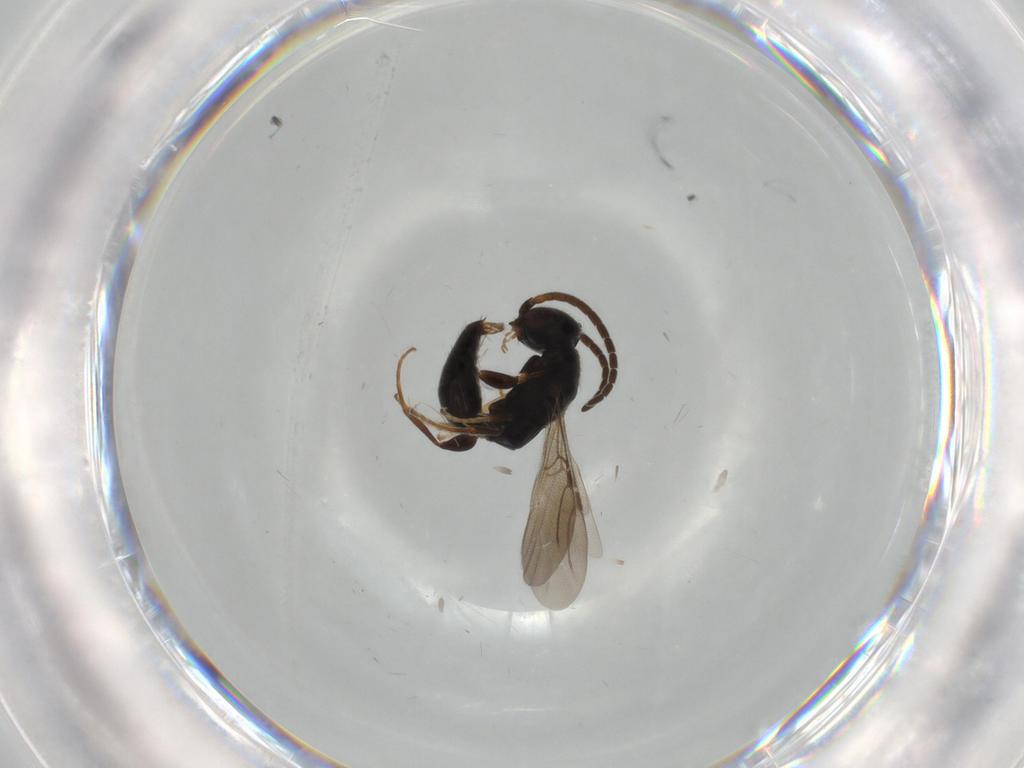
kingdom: Animalia
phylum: Arthropoda
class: Insecta
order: Hymenoptera
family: Bethylidae
